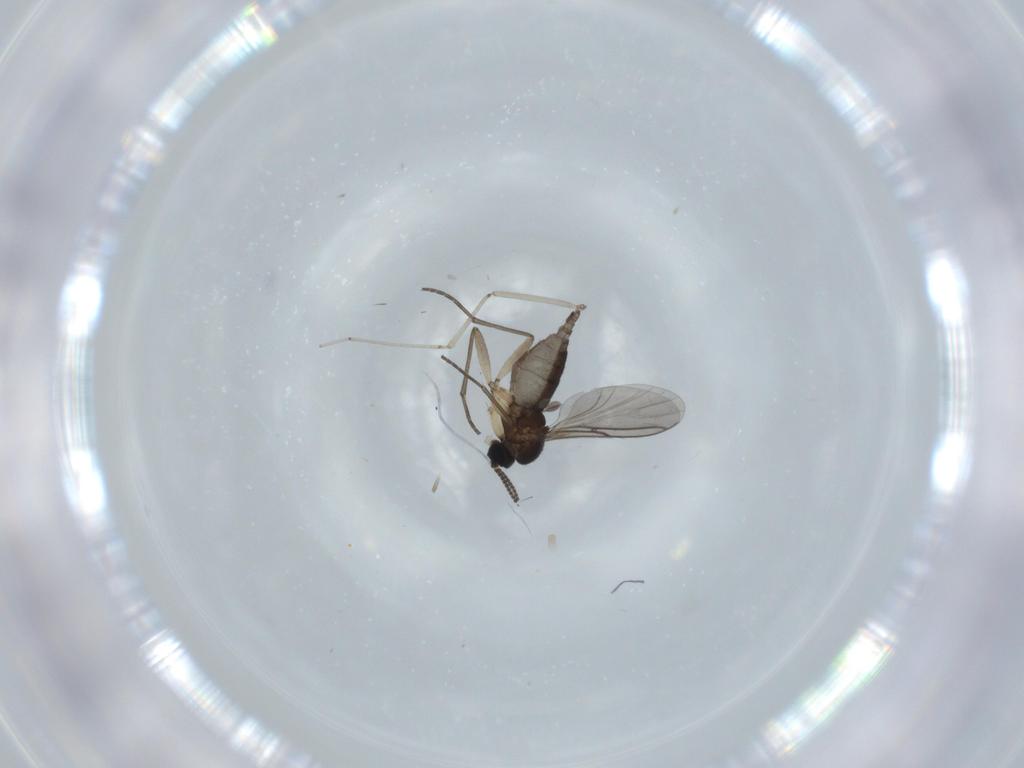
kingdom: Animalia
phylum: Arthropoda
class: Insecta
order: Diptera
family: Sciaridae
